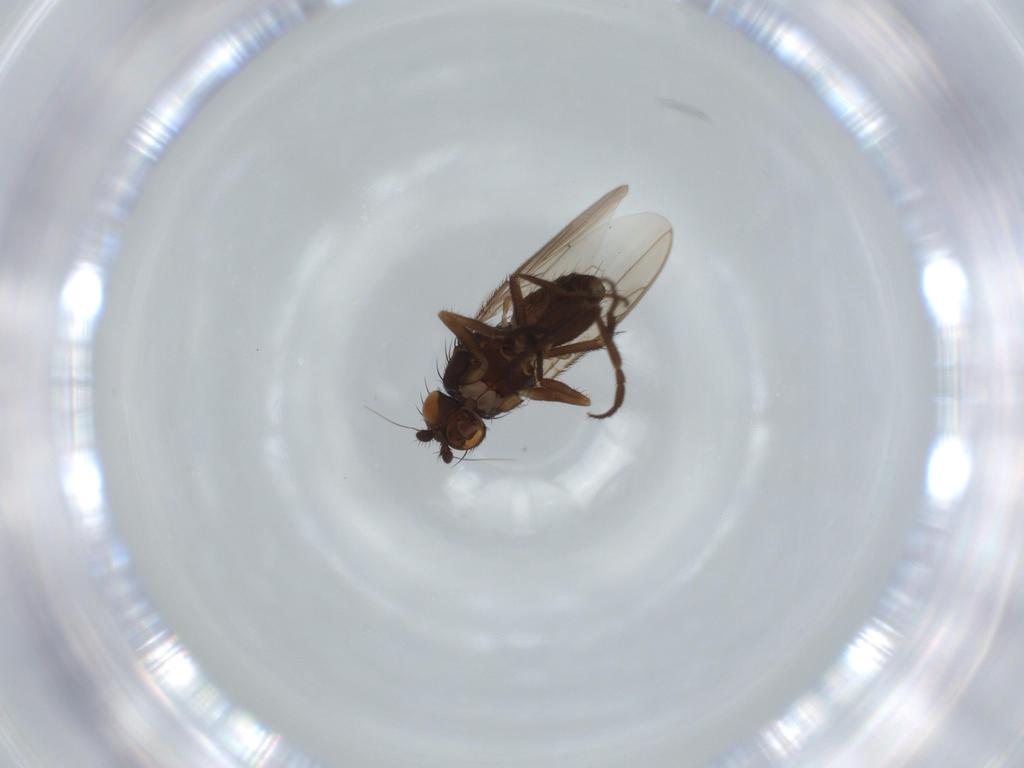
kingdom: Animalia
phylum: Arthropoda
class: Insecta
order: Diptera
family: Sphaeroceridae
